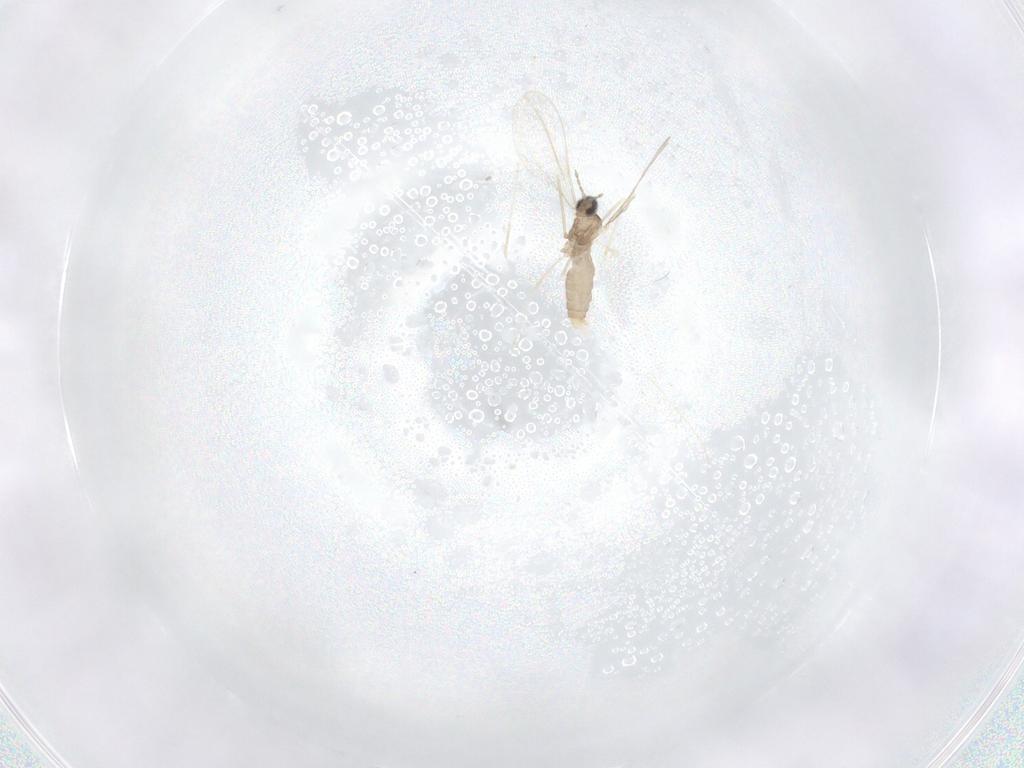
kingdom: Animalia
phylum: Arthropoda
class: Insecta
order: Diptera
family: Cecidomyiidae
